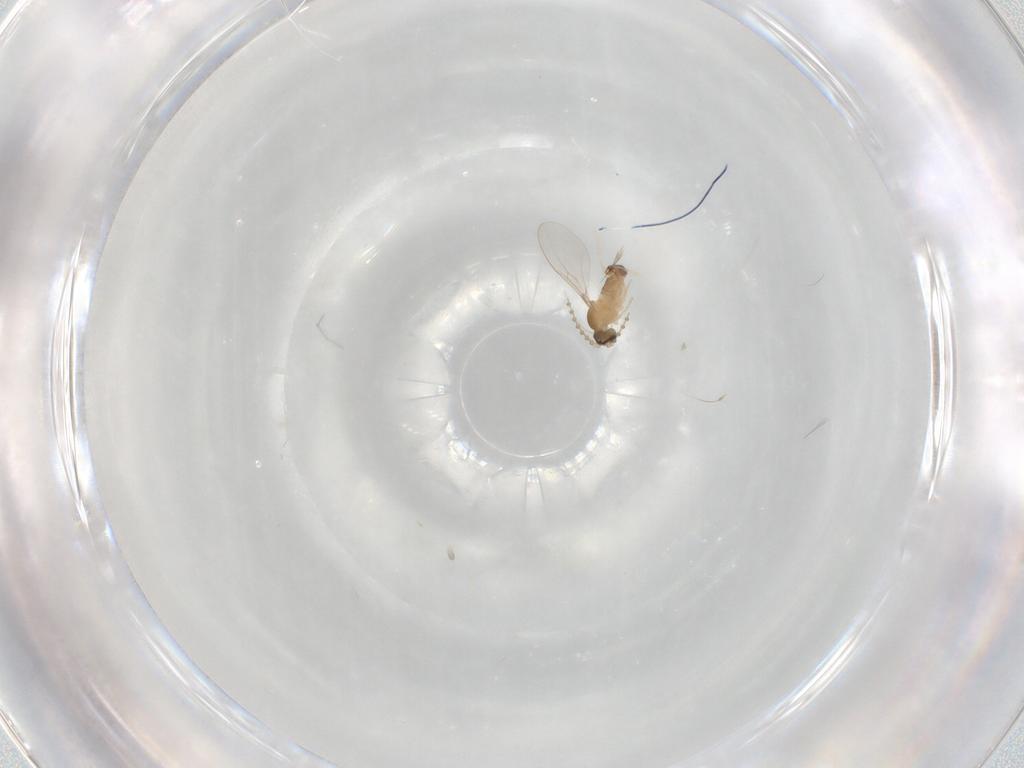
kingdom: Animalia
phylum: Arthropoda
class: Insecta
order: Diptera
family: Cecidomyiidae
